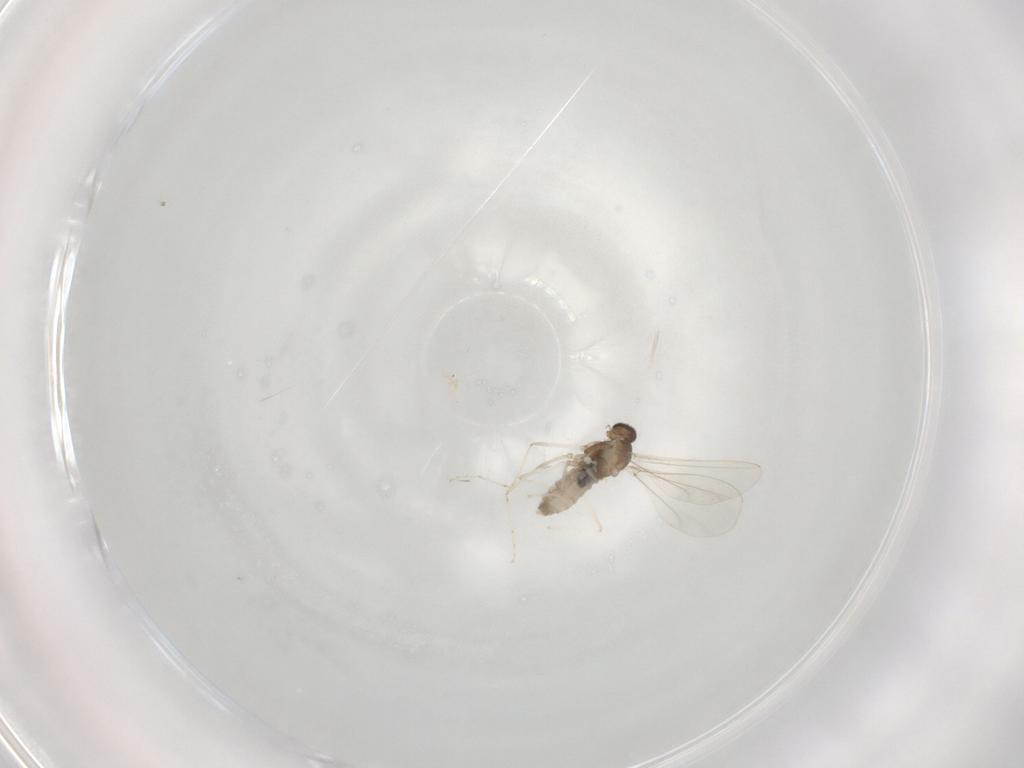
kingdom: Animalia
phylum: Arthropoda
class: Insecta
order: Diptera
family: Cecidomyiidae
